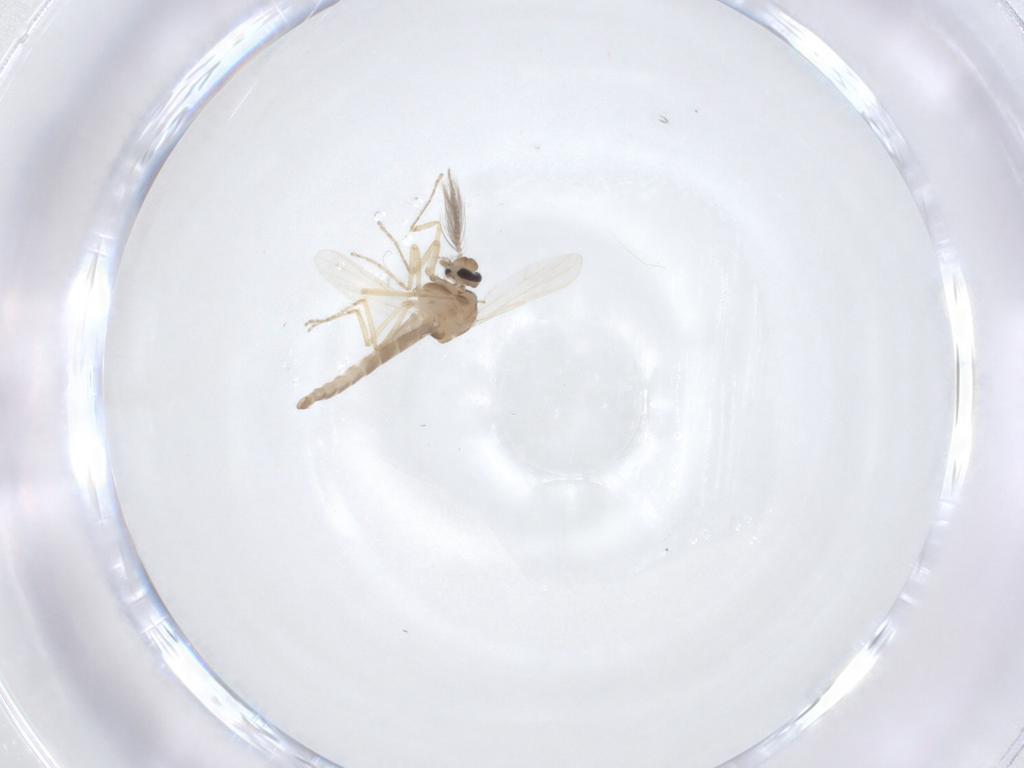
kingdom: Animalia
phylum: Arthropoda
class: Insecta
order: Diptera
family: Ceratopogonidae
